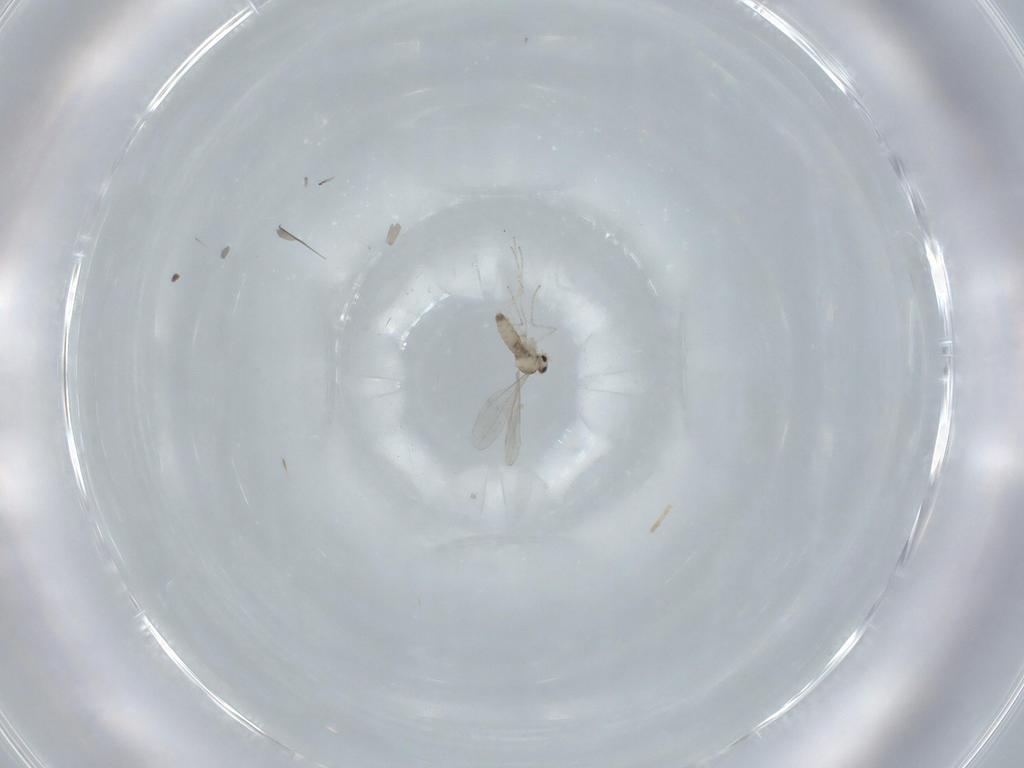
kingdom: Animalia
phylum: Arthropoda
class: Insecta
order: Diptera
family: Cecidomyiidae
